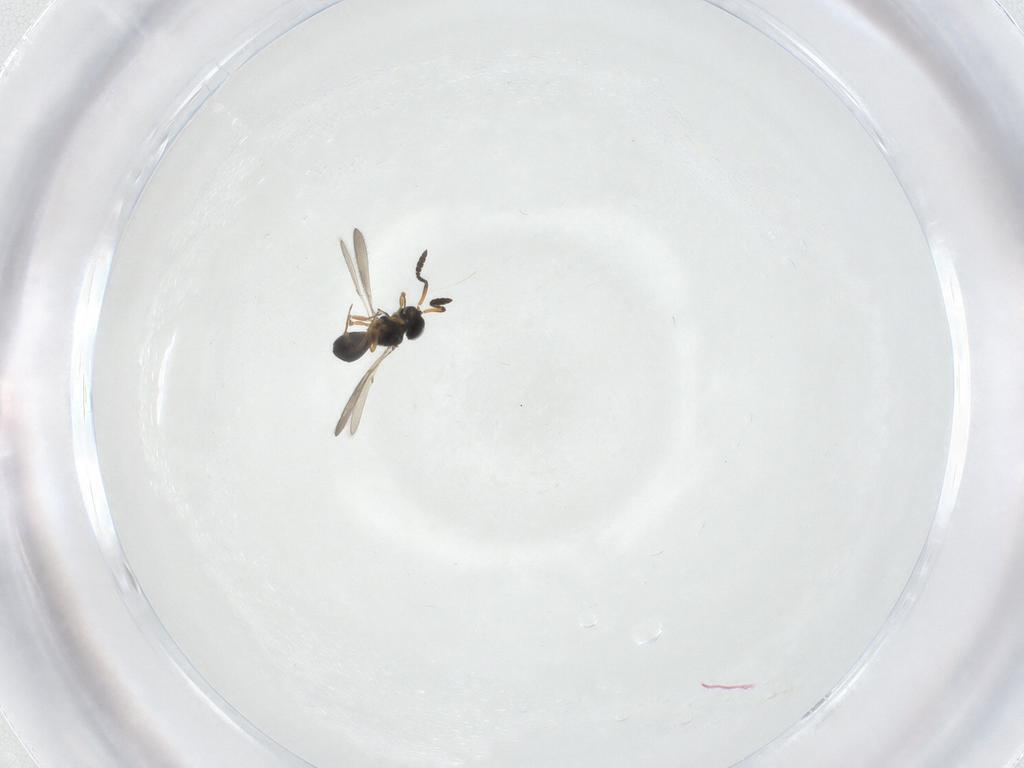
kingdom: Animalia
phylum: Arthropoda
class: Insecta
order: Hymenoptera
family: Scelionidae
